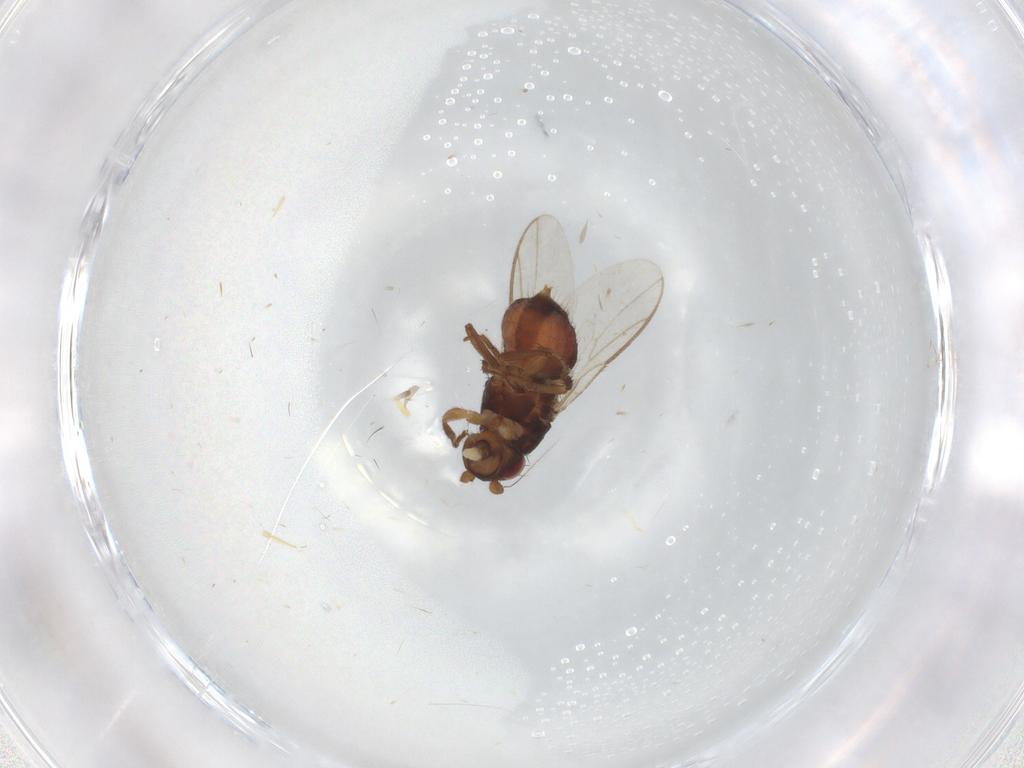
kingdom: Animalia
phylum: Arthropoda
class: Insecta
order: Diptera
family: Sphaeroceridae
